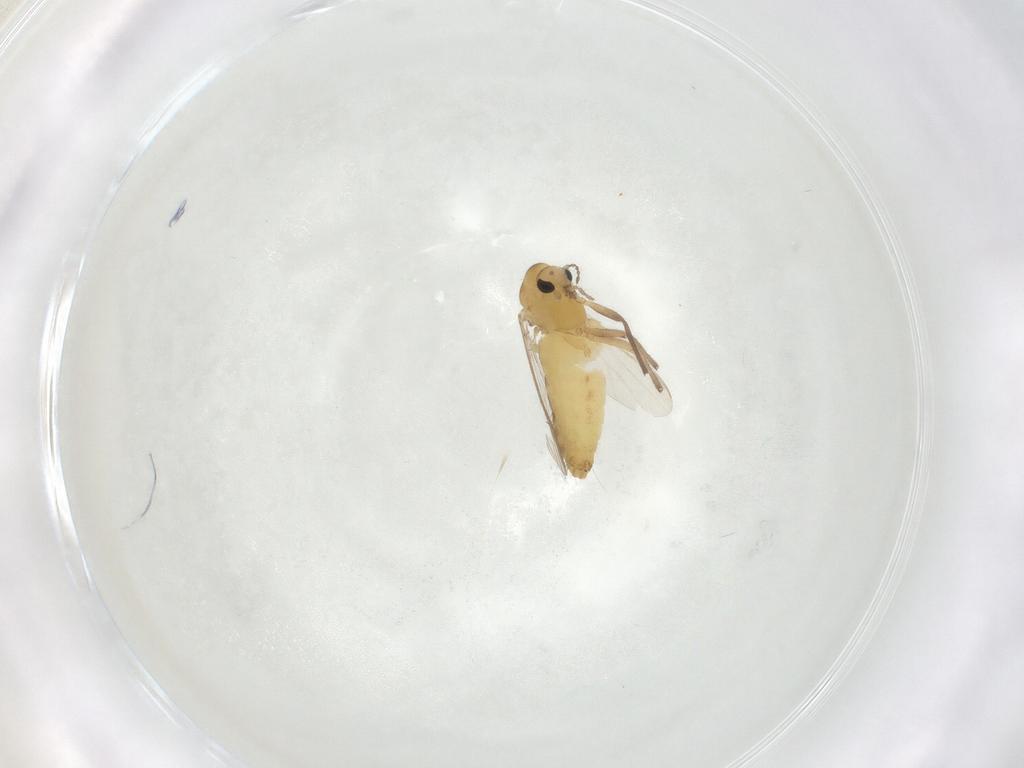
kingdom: Animalia
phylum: Arthropoda
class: Insecta
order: Diptera
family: Chironomidae
